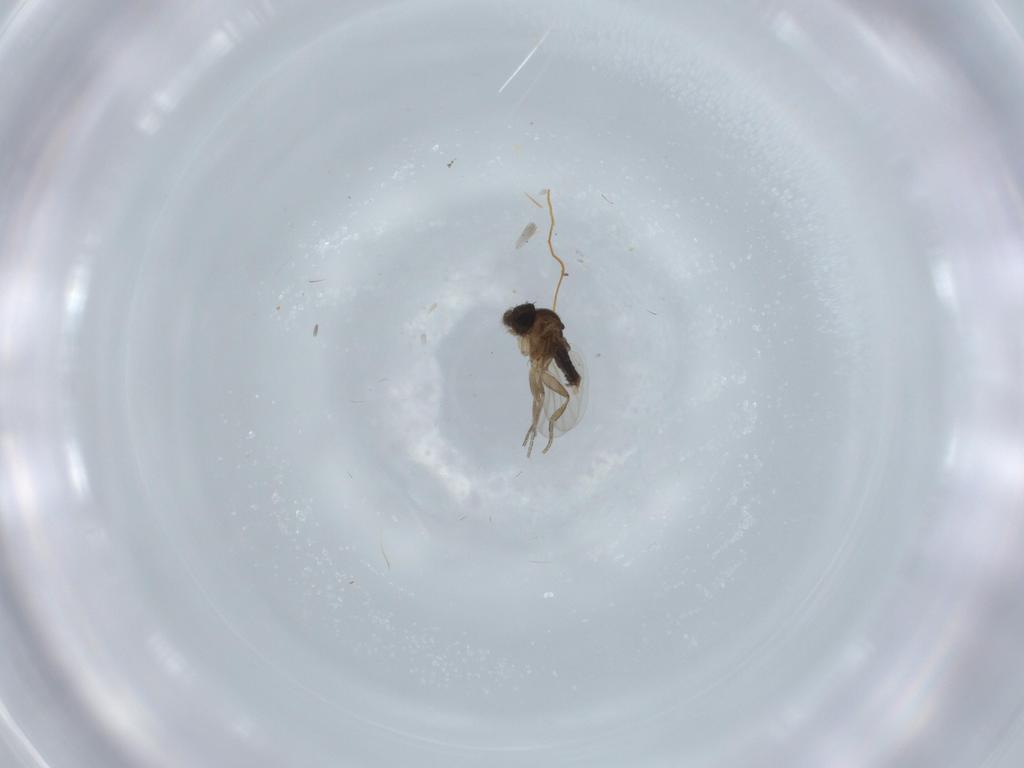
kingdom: Animalia
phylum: Arthropoda
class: Insecta
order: Diptera
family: Phoridae
